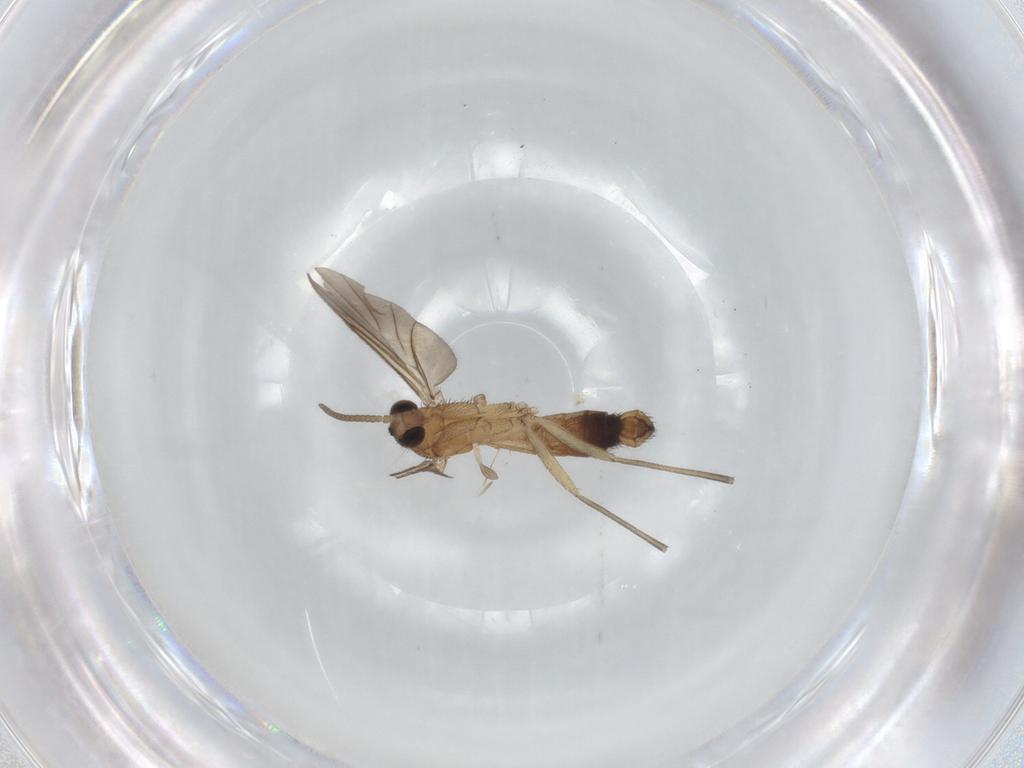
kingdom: Animalia
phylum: Arthropoda
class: Insecta
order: Diptera
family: Keroplatidae
